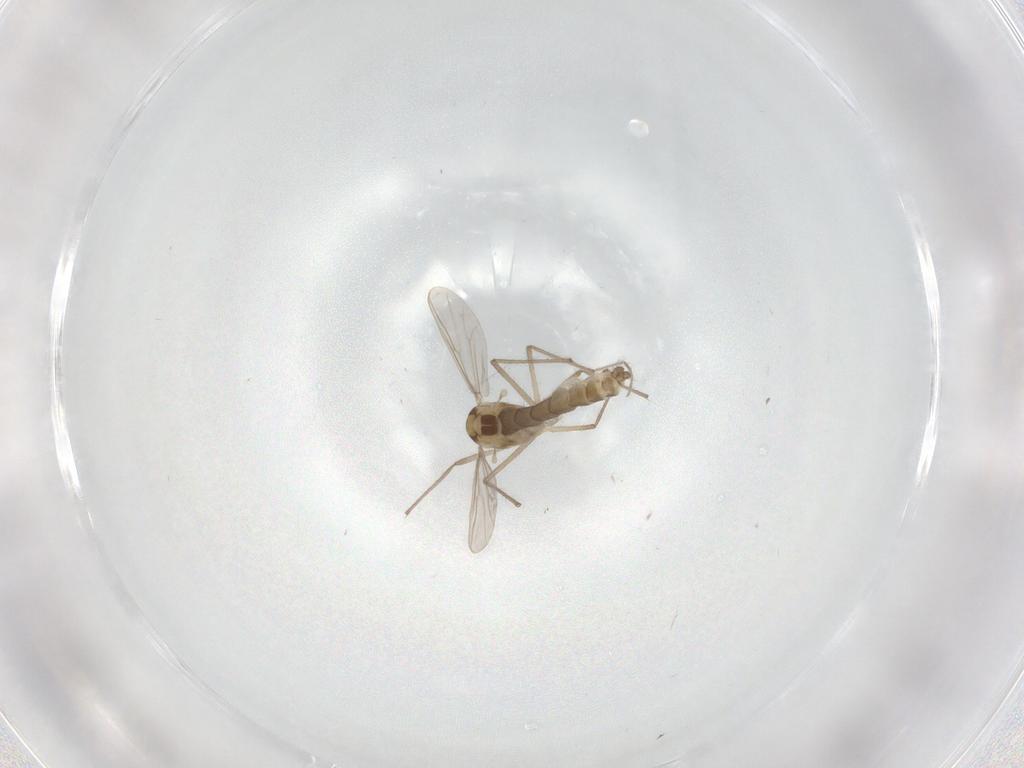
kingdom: Animalia
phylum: Arthropoda
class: Insecta
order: Diptera
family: Chironomidae
